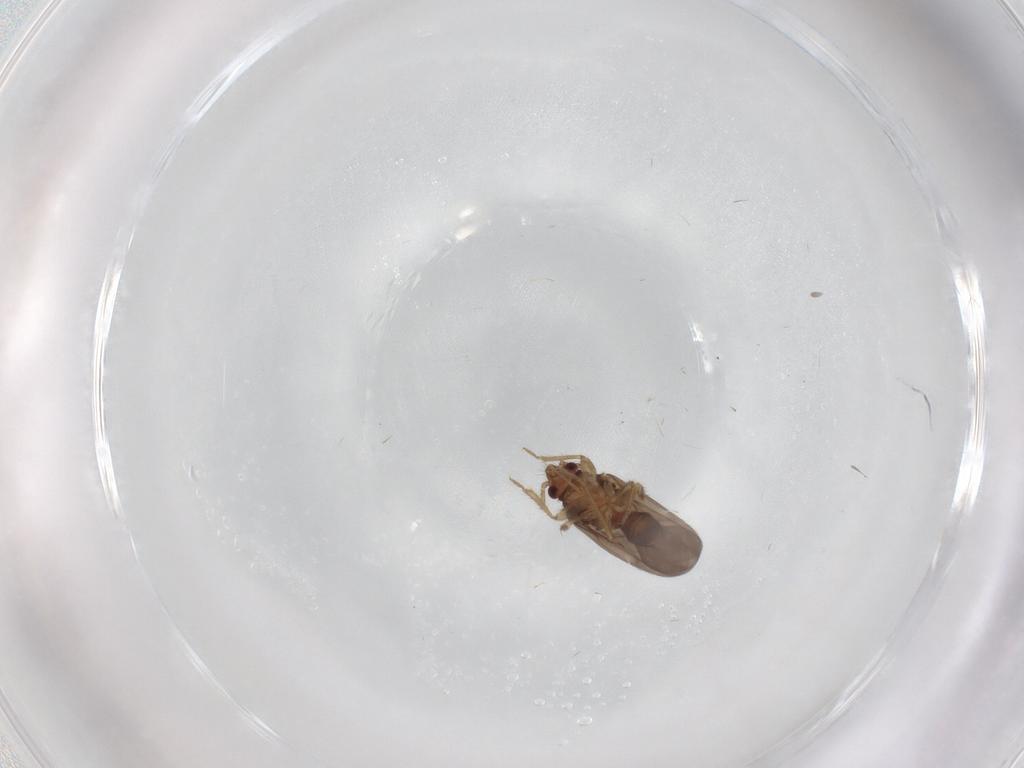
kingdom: Animalia
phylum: Arthropoda
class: Insecta
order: Hemiptera
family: Ceratocombidae
